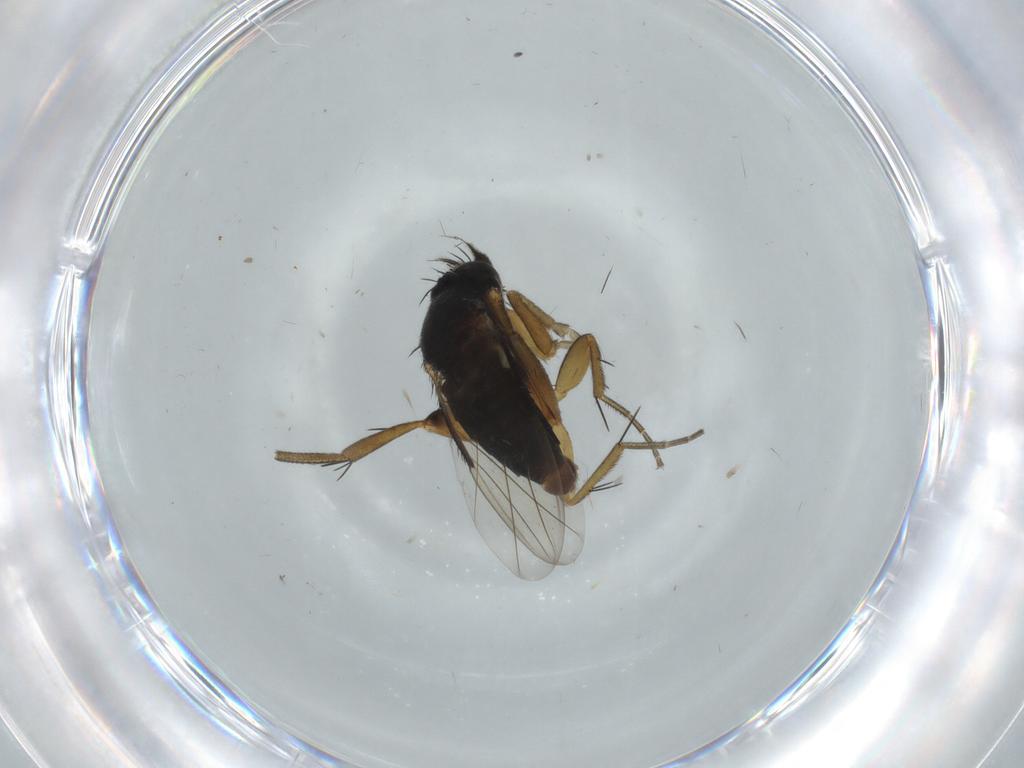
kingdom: Animalia
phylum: Arthropoda
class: Insecta
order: Diptera
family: Phoridae
